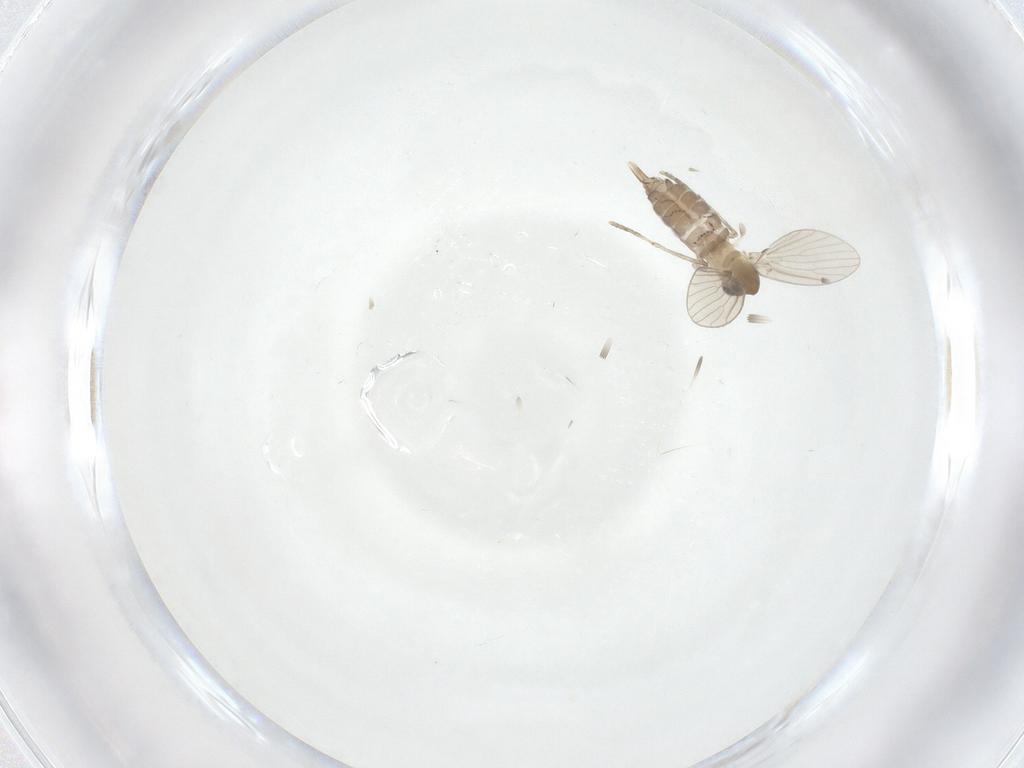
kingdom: Animalia
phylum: Arthropoda
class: Insecta
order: Diptera
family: Psychodidae
